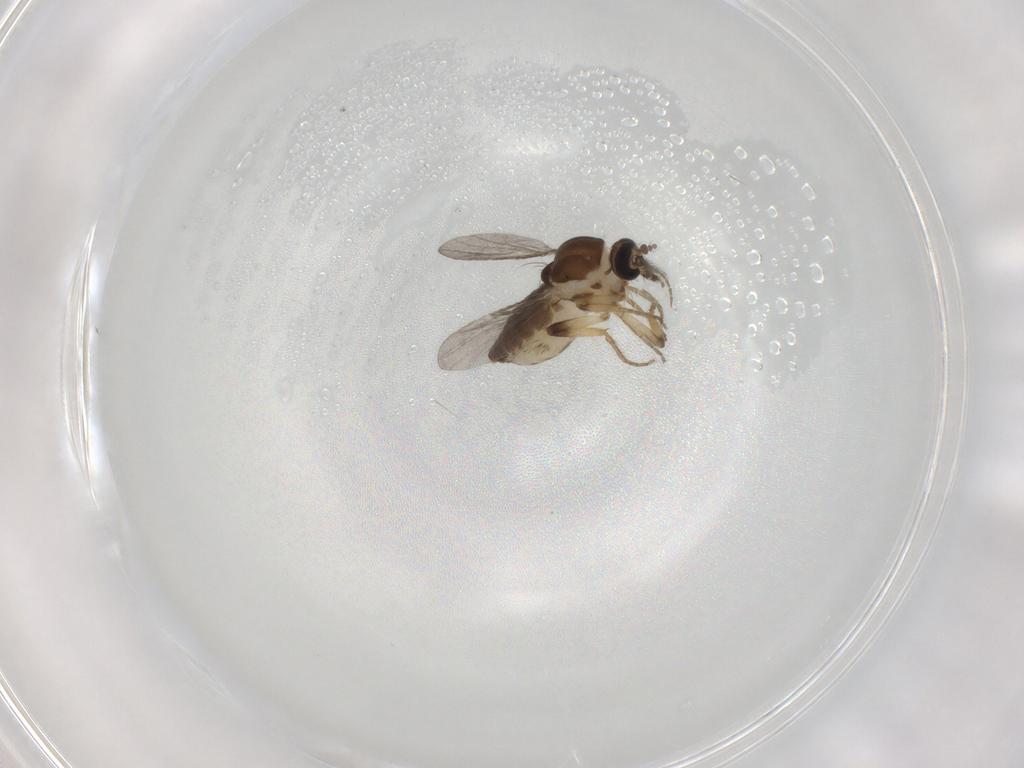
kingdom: Animalia
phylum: Arthropoda
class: Insecta
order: Diptera
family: Ceratopogonidae
